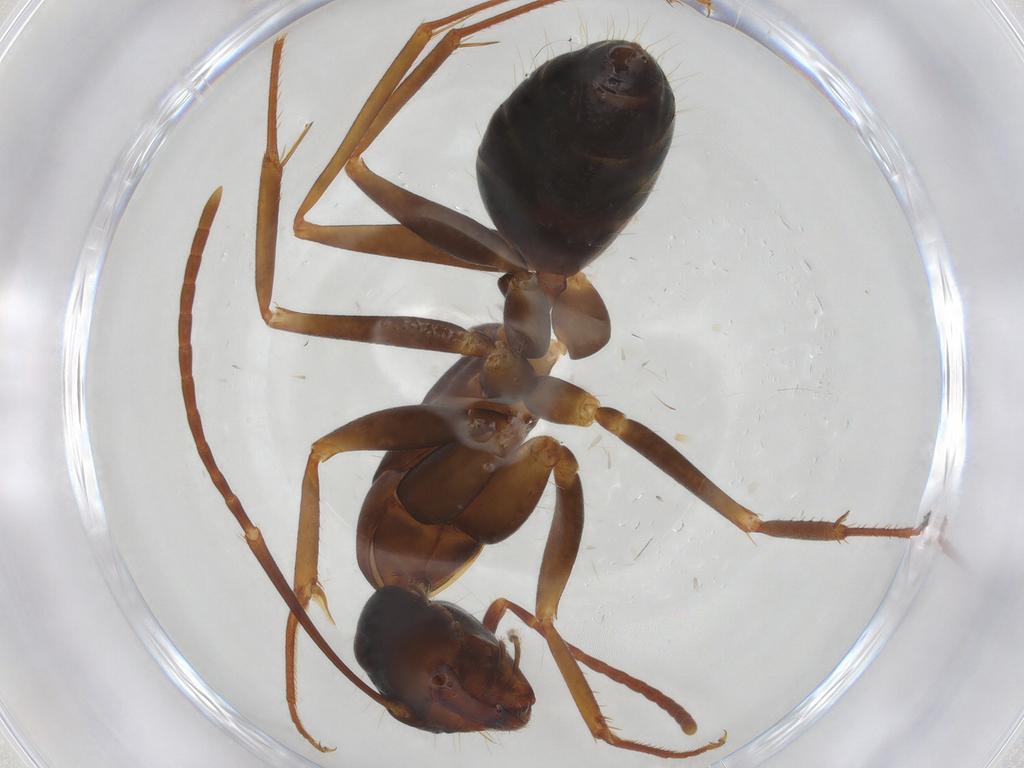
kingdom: Animalia
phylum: Arthropoda
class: Insecta
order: Hymenoptera
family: Formicidae
